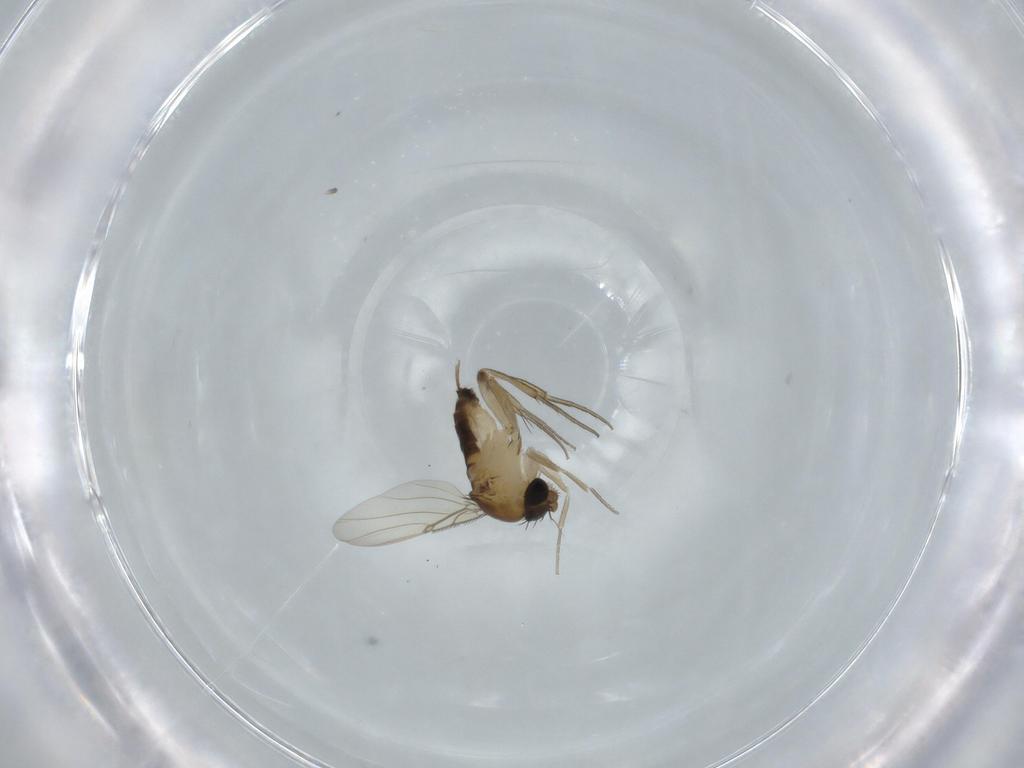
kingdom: Animalia
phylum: Arthropoda
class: Insecta
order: Diptera
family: Phoridae
